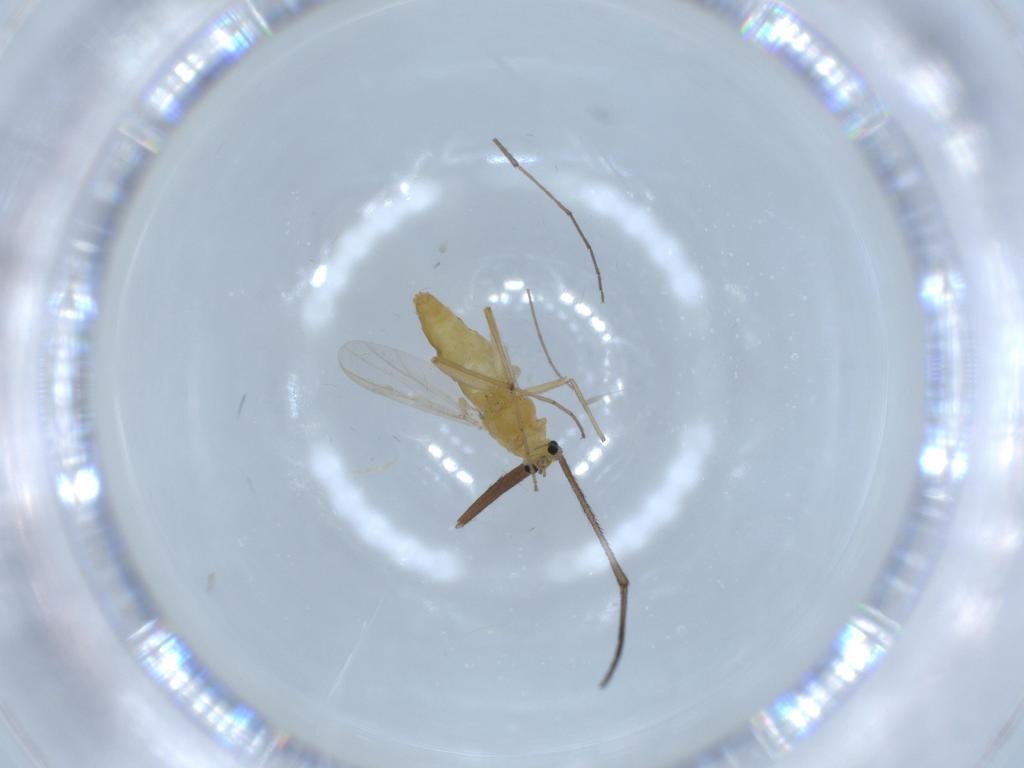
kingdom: Animalia
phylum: Arthropoda
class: Insecta
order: Diptera
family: Chironomidae
